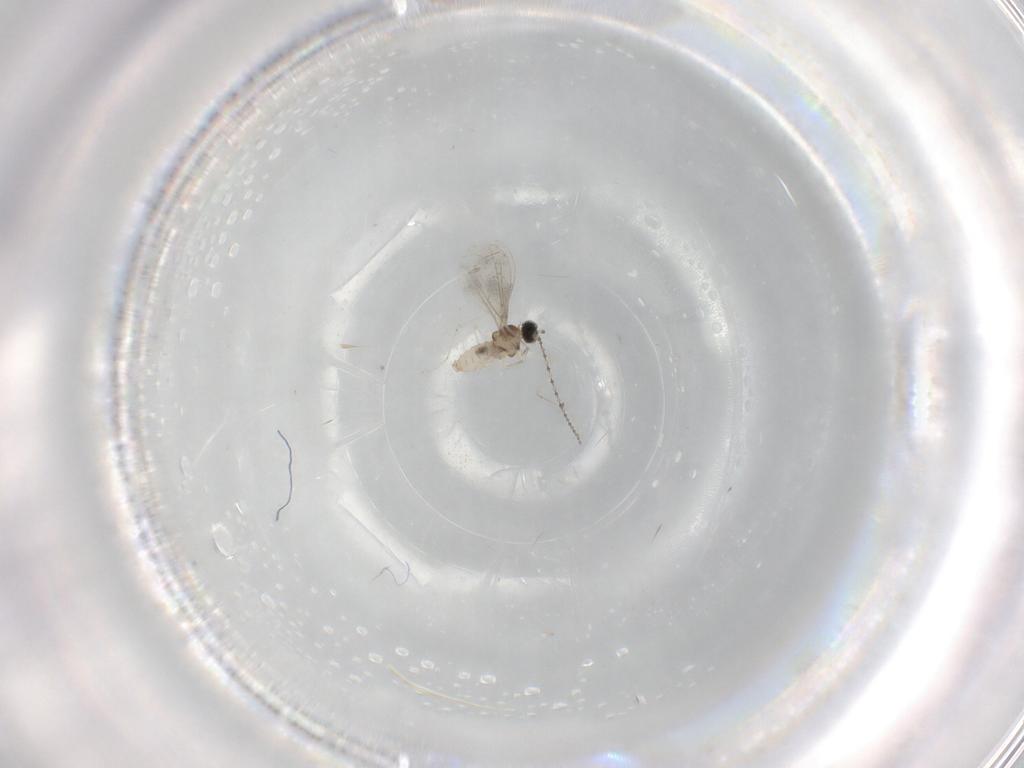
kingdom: Animalia
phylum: Arthropoda
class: Insecta
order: Diptera
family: Cecidomyiidae
